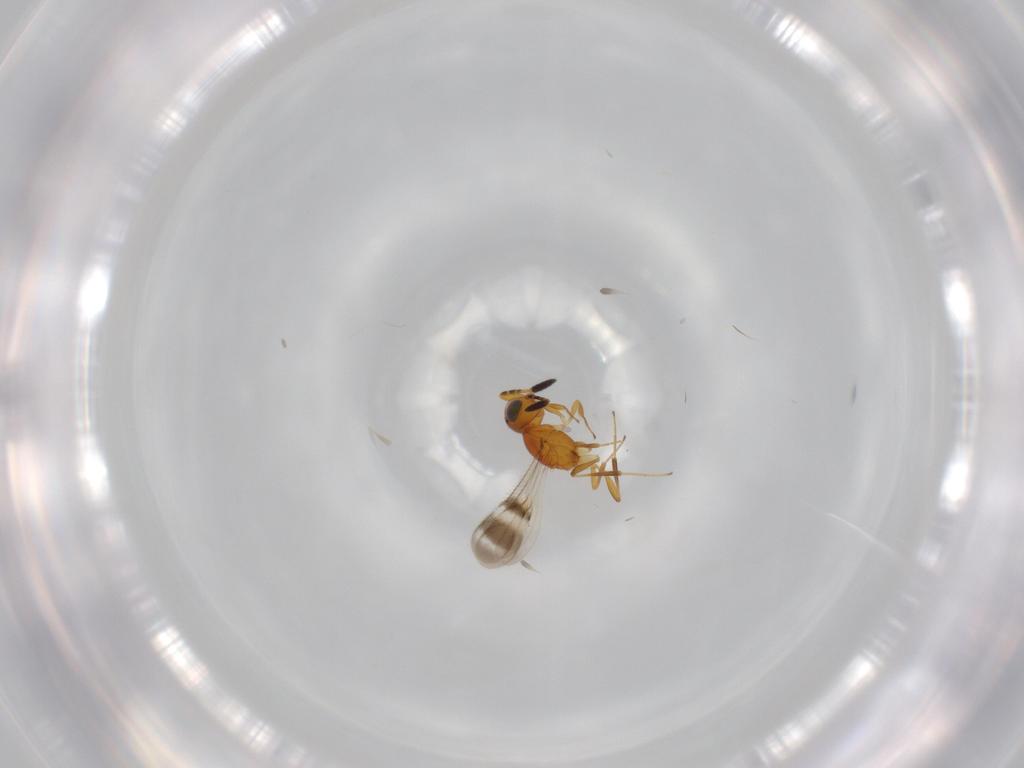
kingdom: Animalia
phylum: Arthropoda
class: Insecta
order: Hymenoptera
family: Scelionidae
